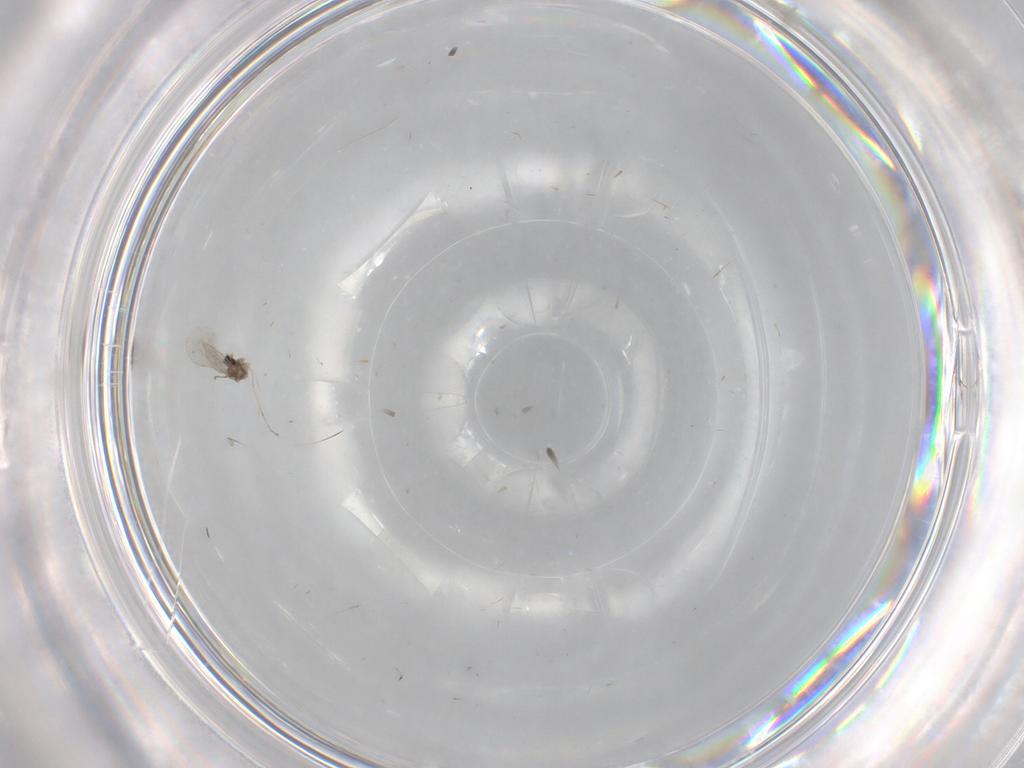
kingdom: Animalia
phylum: Arthropoda
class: Insecta
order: Diptera
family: Cecidomyiidae
